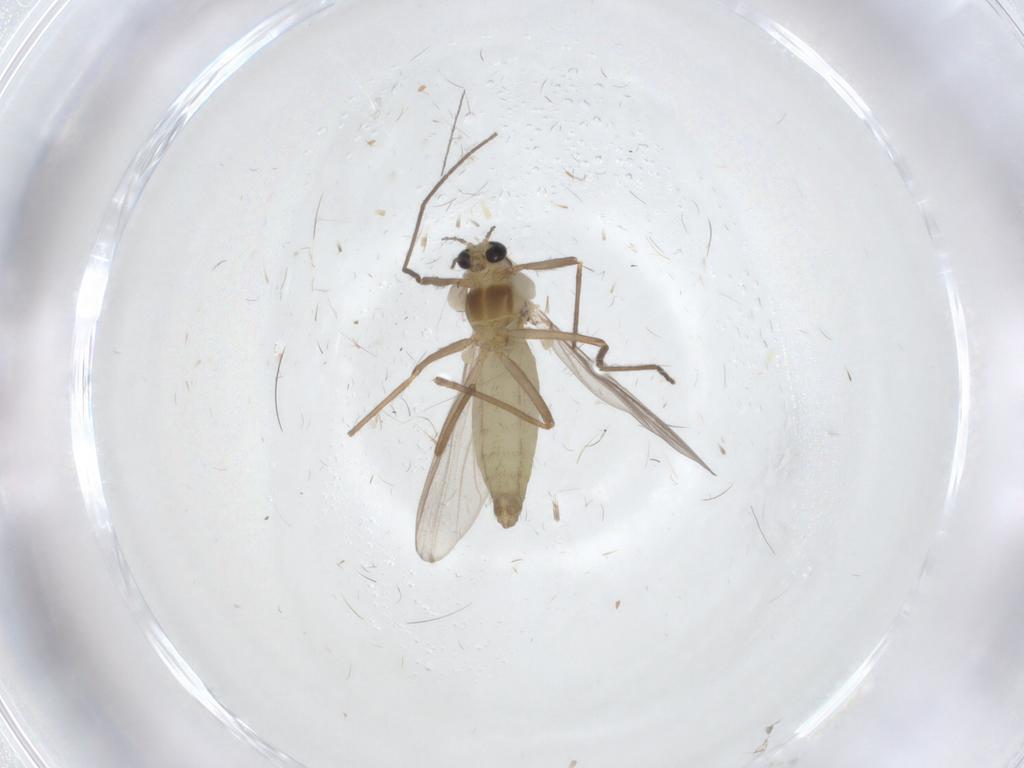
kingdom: Animalia
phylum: Arthropoda
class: Insecta
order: Diptera
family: Chironomidae
